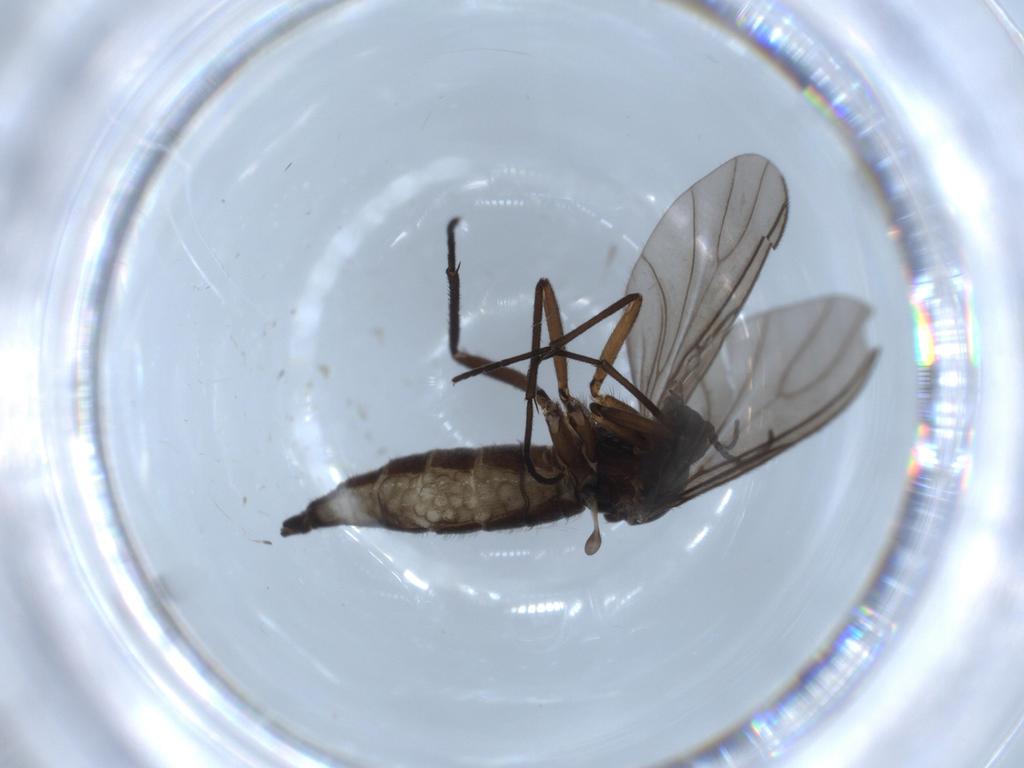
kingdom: Animalia
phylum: Arthropoda
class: Insecta
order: Diptera
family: Sciaridae
